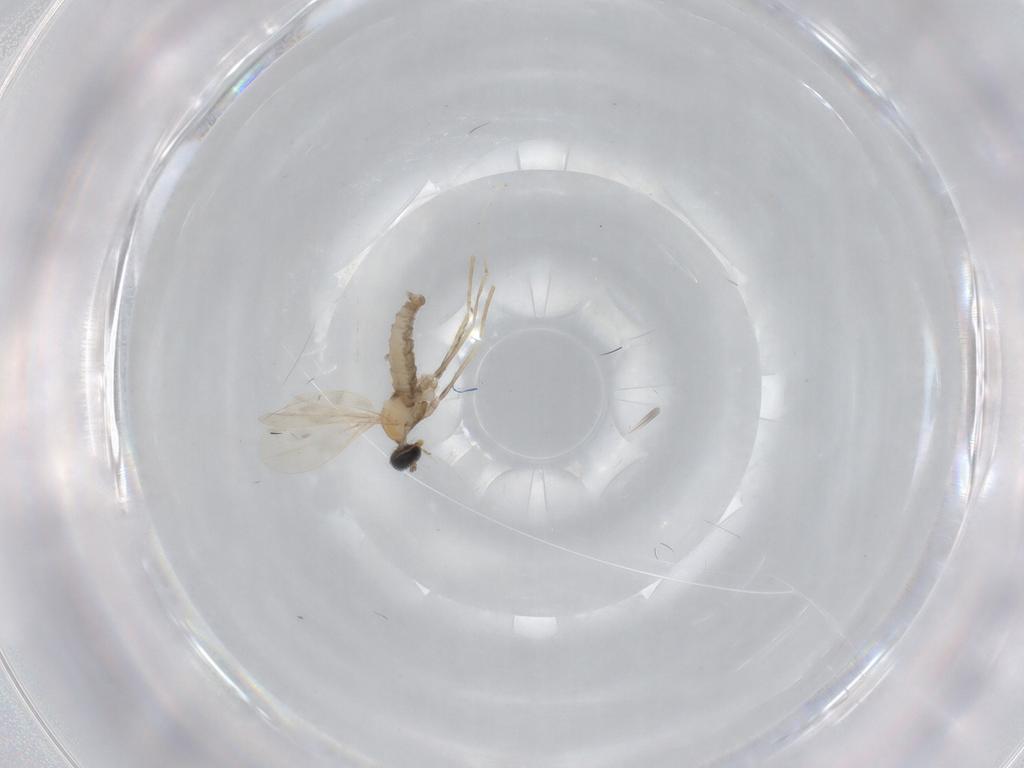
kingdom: Animalia
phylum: Arthropoda
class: Insecta
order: Diptera
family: Cecidomyiidae
